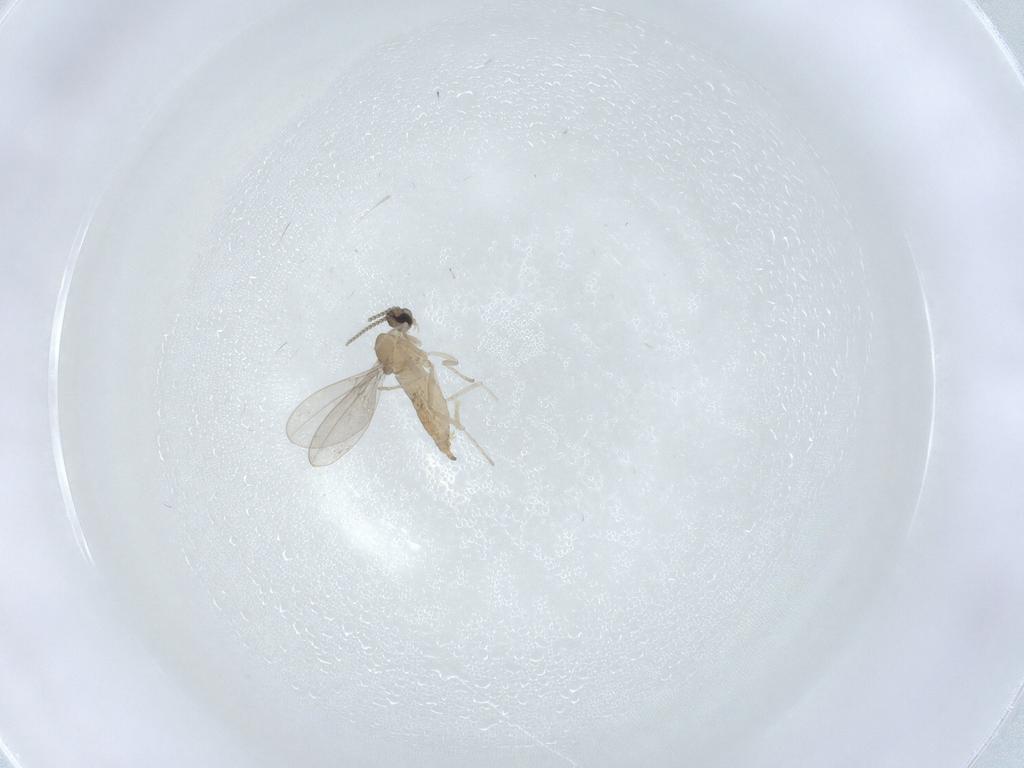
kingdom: Animalia
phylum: Arthropoda
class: Insecta
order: Diptera
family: Cecidomyiidae
